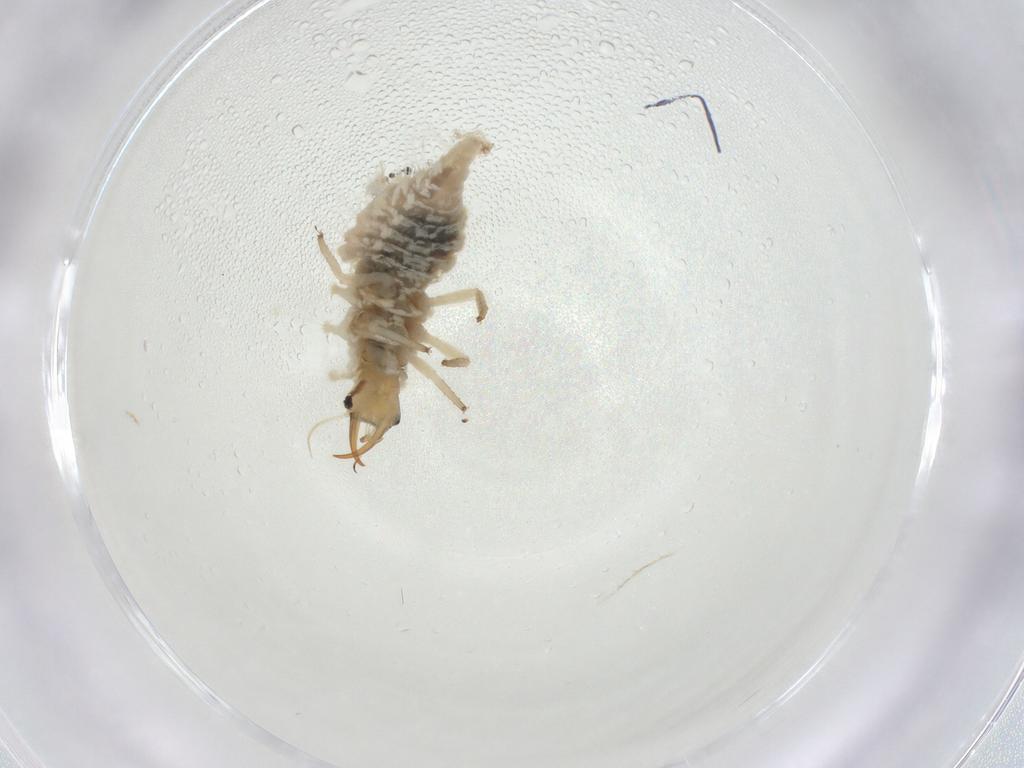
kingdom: Animalia
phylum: Arthropoda
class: Insecta
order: Neuroptera
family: Chrysopidae
